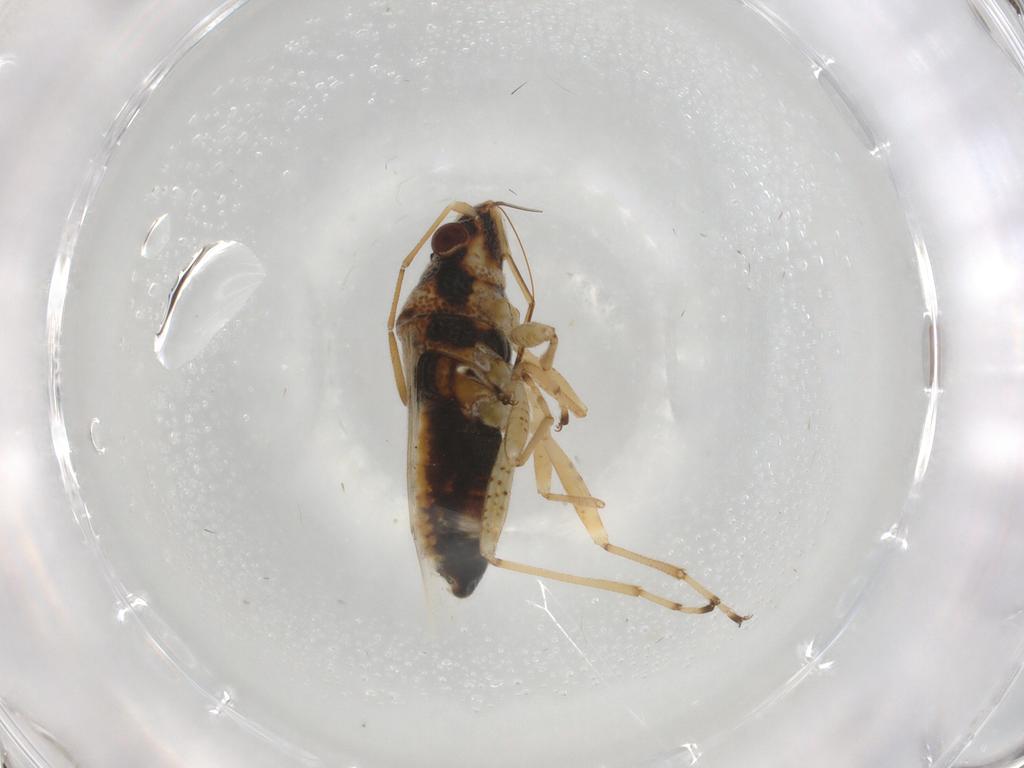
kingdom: Animalia
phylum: Arthropoda
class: Insecta
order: Hemiptera
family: Lygaeidae
